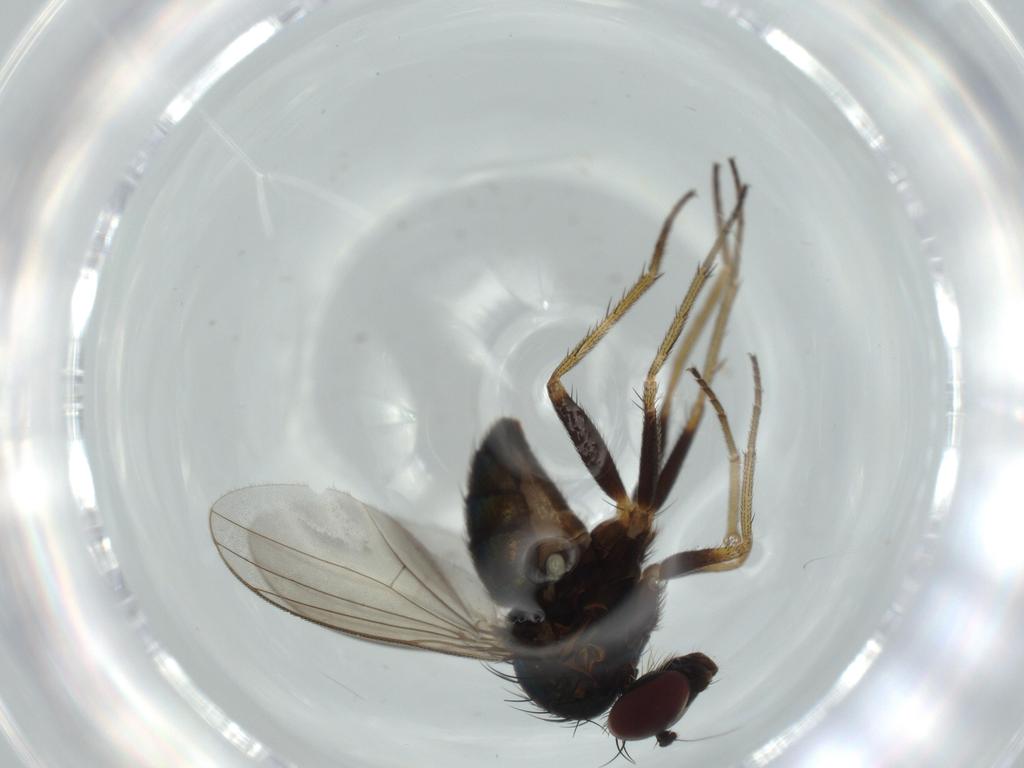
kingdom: Animalia
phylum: Arthropoda
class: Insecta
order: Diptera
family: Dolichopodidae
